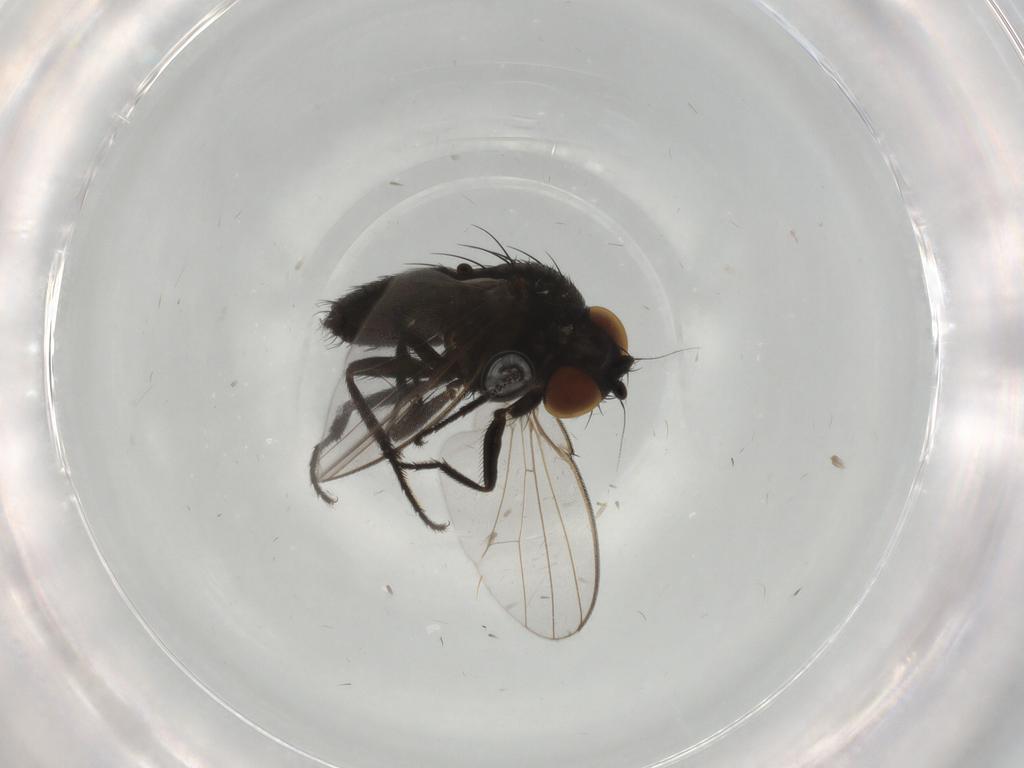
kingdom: Animalia
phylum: Arthropoda
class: Insecta
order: Diptera
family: Milichiidae
